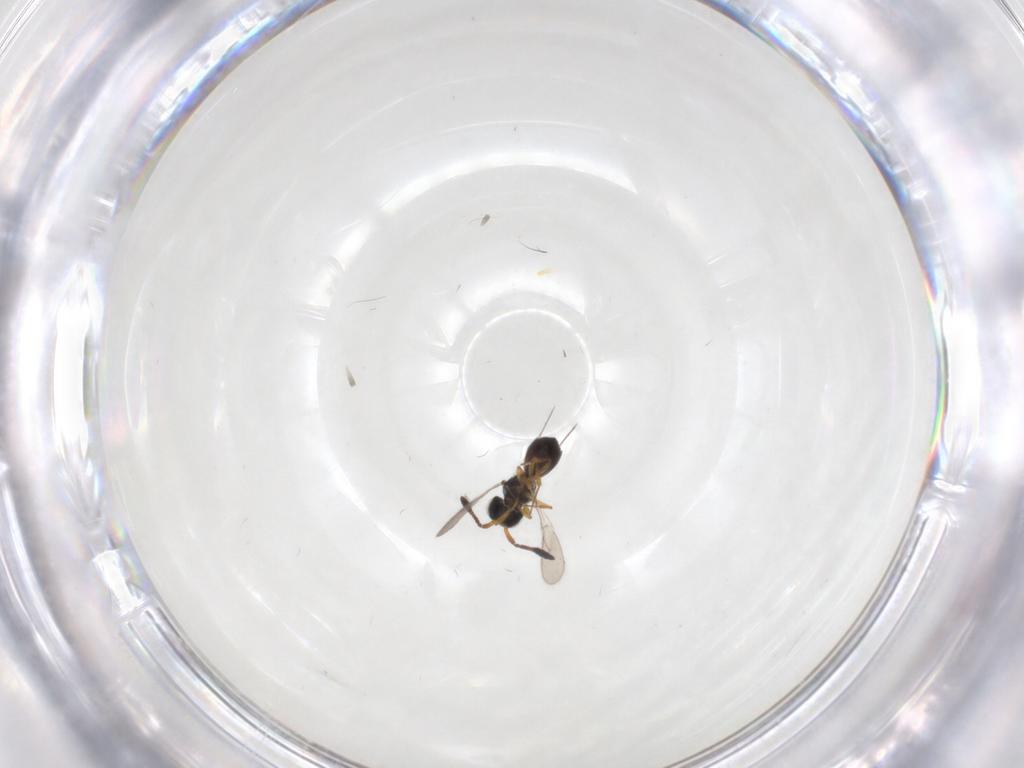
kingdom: Animalia
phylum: Arthropoda
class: Insecta
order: Hymenoptera
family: Scelionidae
